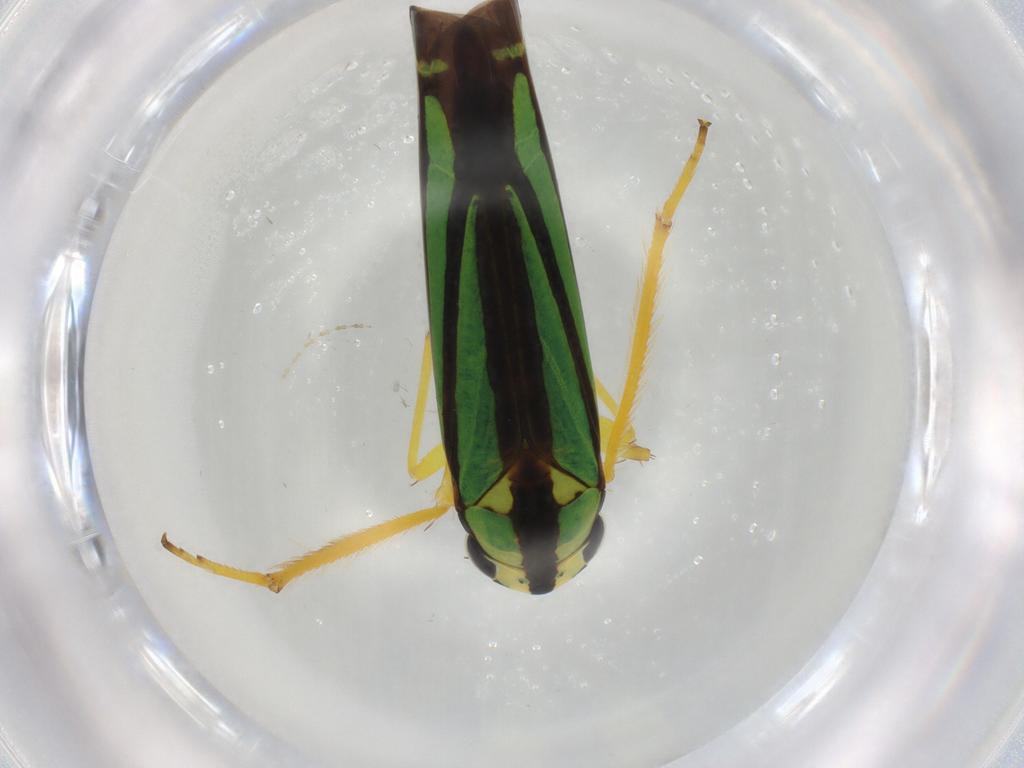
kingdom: Animalia
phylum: Arthropoda
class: Insecta
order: Hemiptera
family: Cicadellidae
